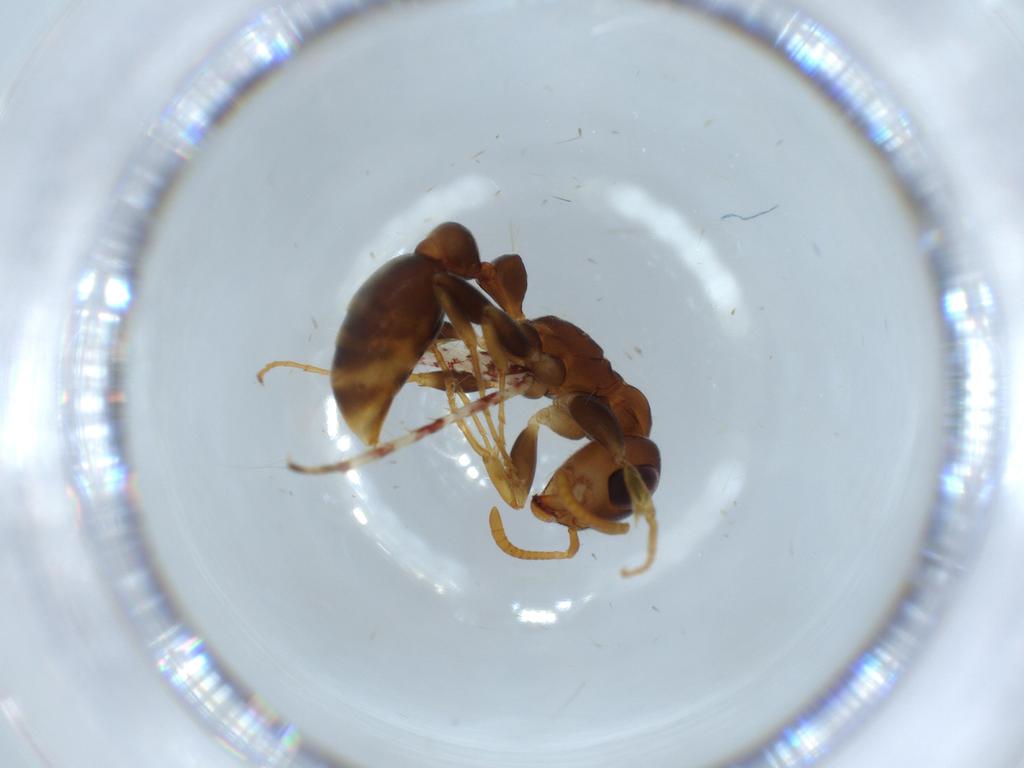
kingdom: Animalia
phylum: Arthropoda
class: Insecta
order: Hymenoptera
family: Formicidae
